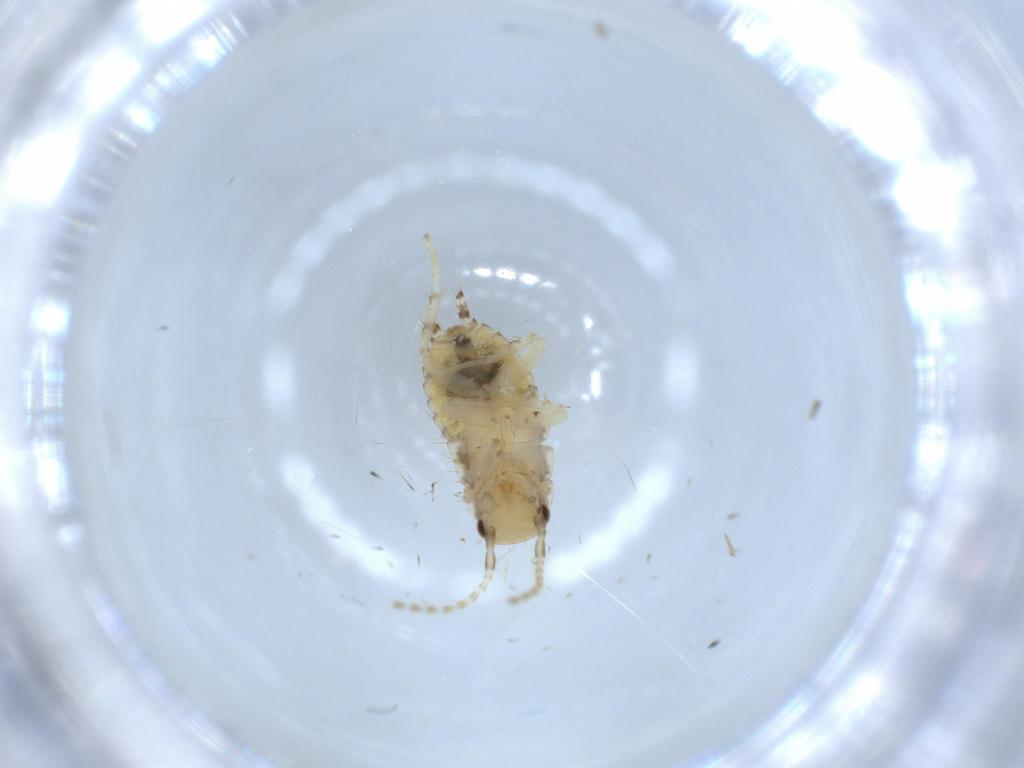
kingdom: Animalia
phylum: Arthropoda
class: Insecta
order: Blattodea
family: Ectobiidae
